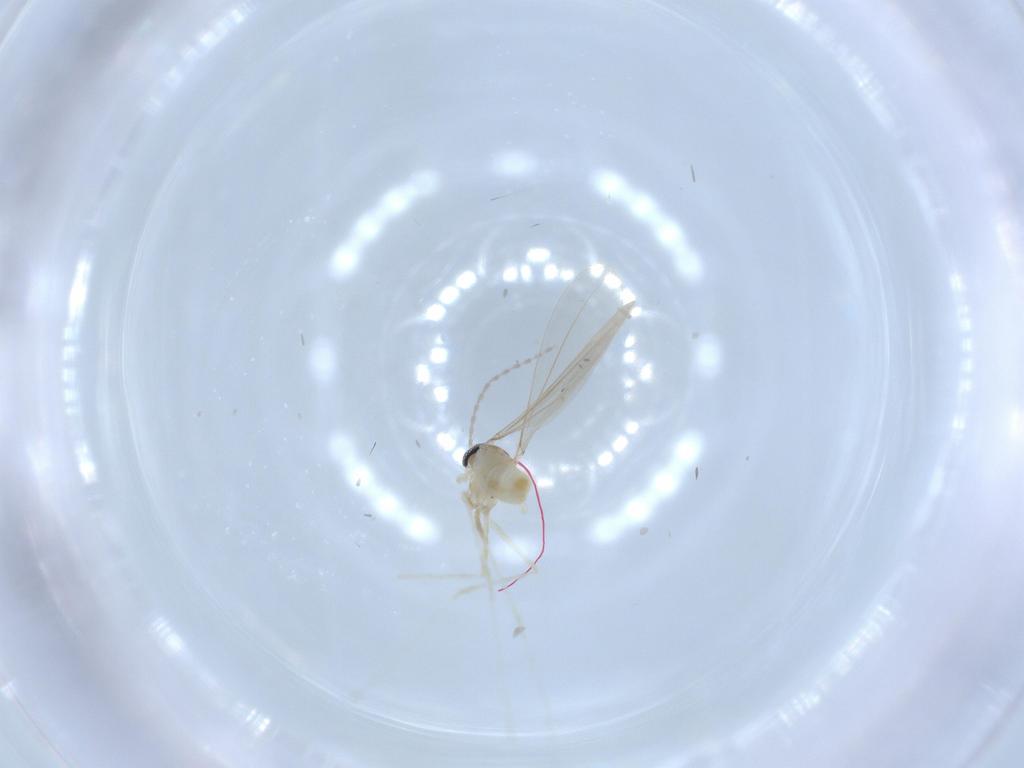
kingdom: Animalia
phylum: Arthropoda
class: Insecta
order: Diptera
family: Cecidomyiidae
